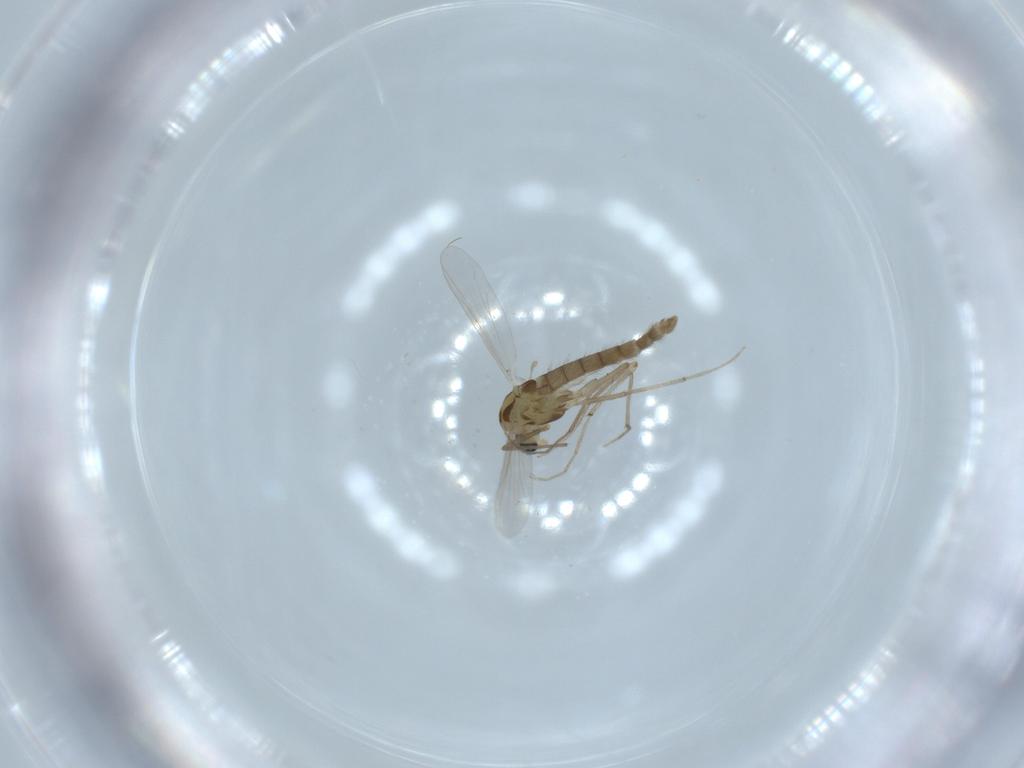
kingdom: Animalia
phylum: Arthropoda
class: Insecta
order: Diptera
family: Chironomidae
